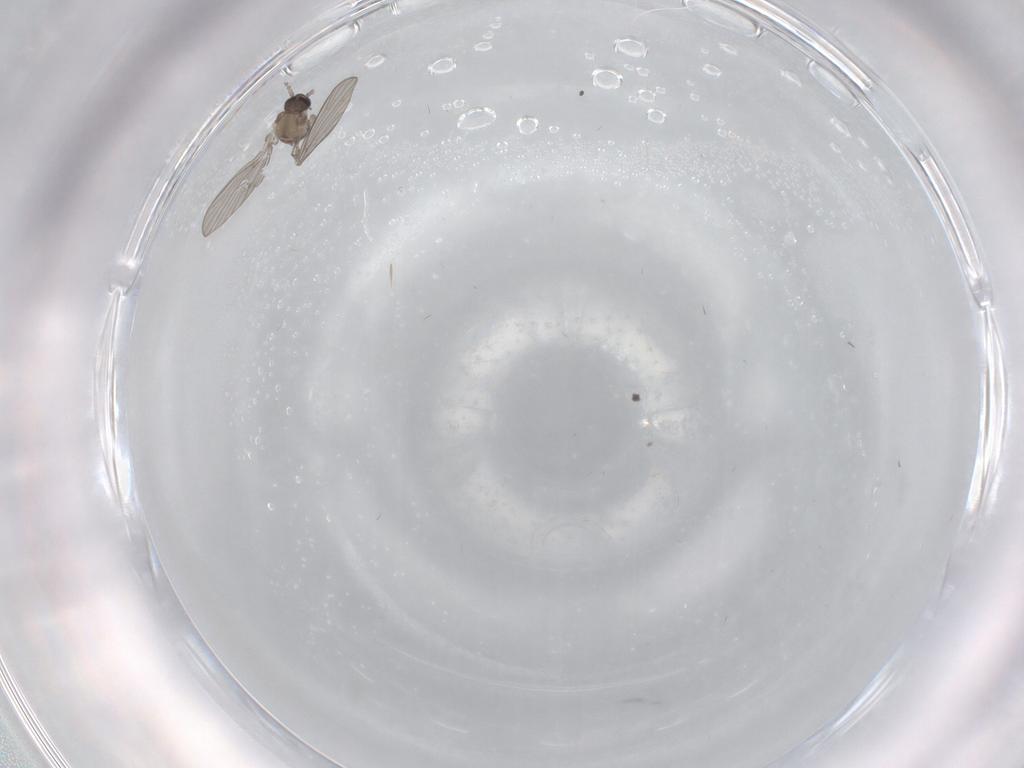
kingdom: Animalia
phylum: Arthropoda
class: Insecta
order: Diptera
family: Psychodidae
